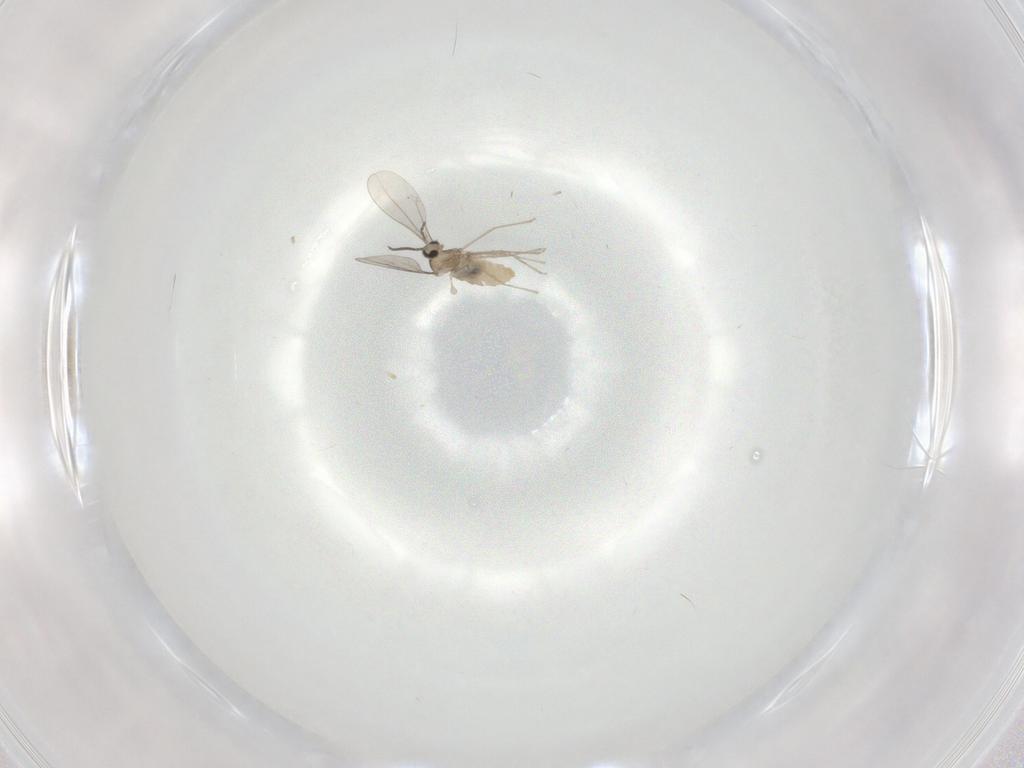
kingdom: Animalia
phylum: Arthropoda
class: Insecta
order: Diptera
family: Cecidomyiidae
